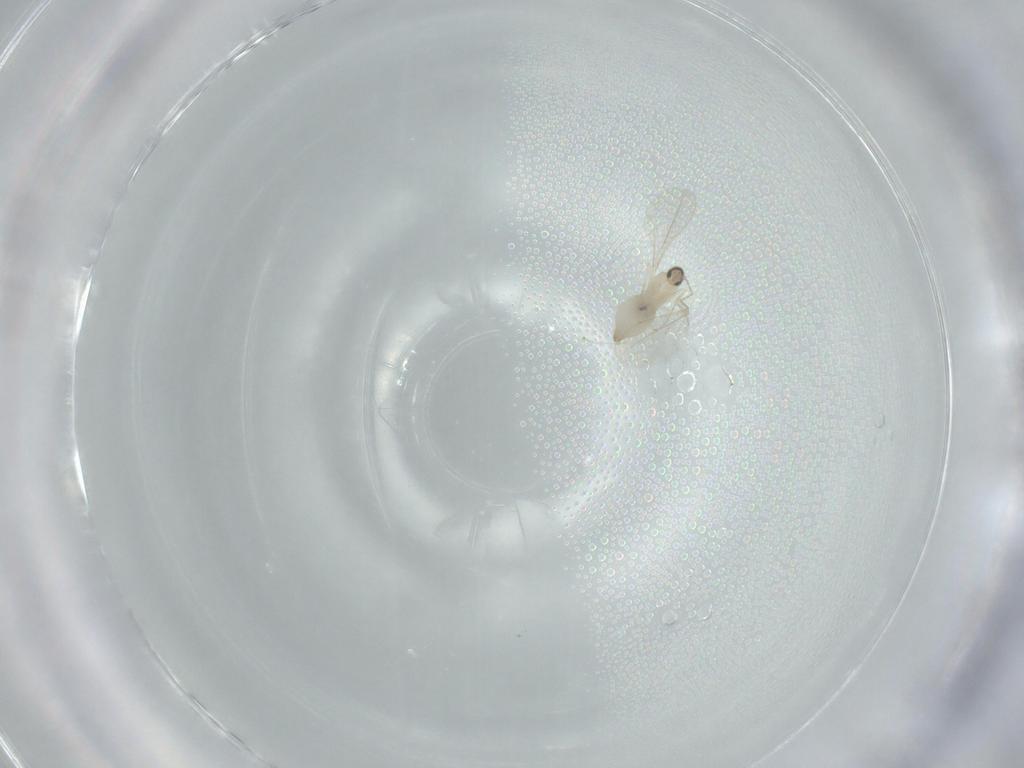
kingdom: Animalia
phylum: Arthropoda
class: Insecta
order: Diptera
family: Cecidomyiidae
